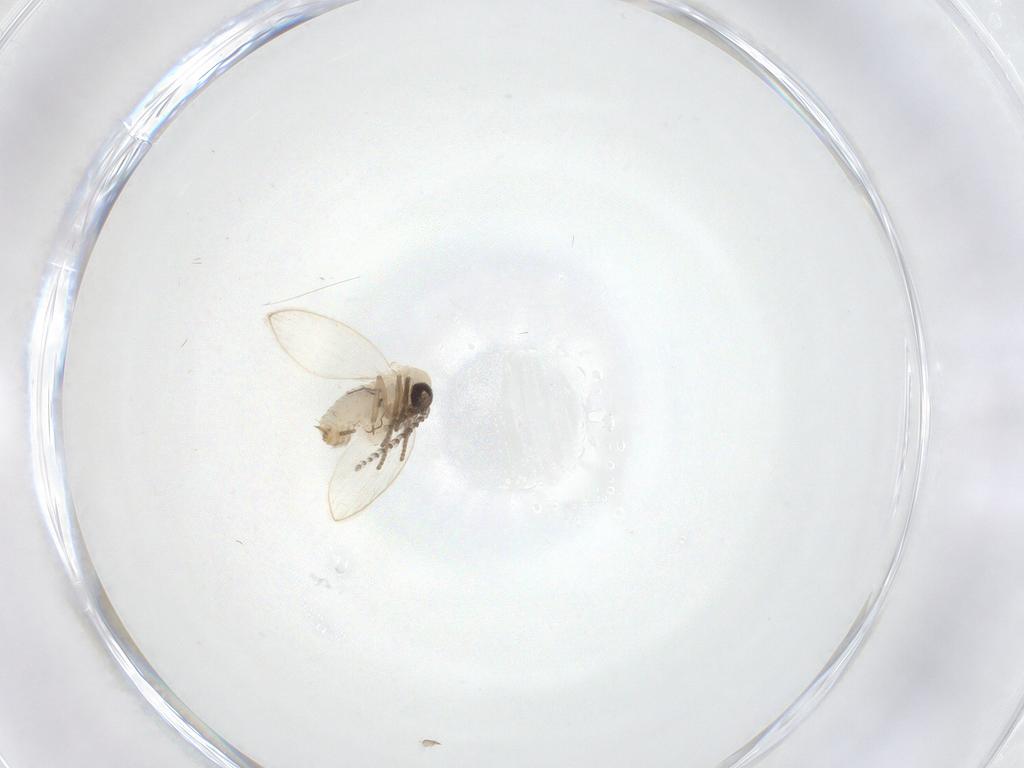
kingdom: Animalia
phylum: Arthropoda
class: Insecta
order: Diptera
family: Psychodidae
